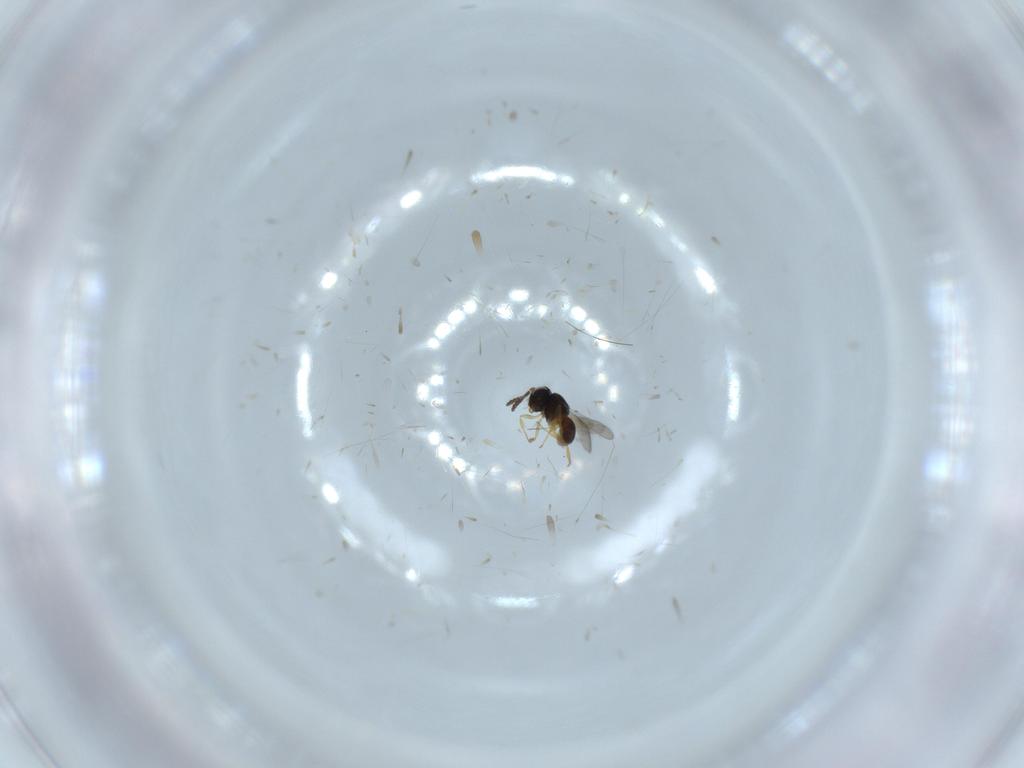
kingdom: Animalia
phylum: Arthropoda
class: Insecta
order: Hymenoptera
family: Scelionidae
